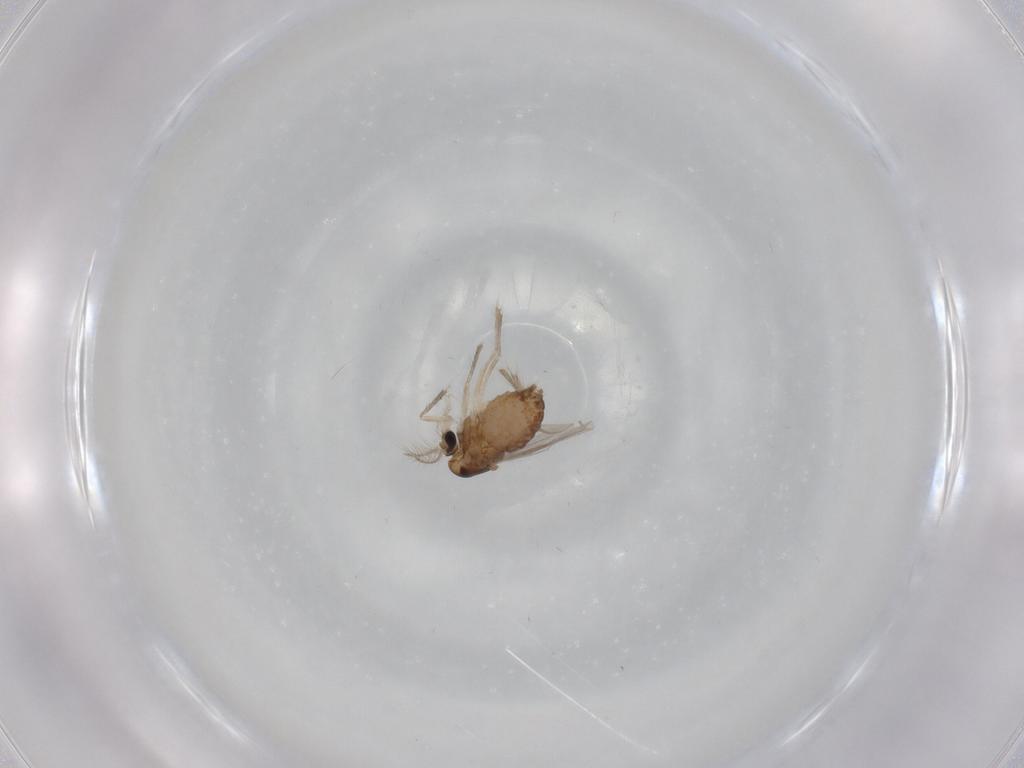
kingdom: Animalia
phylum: Arthropoda
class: Insecta
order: Diptera
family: Chironomidae
